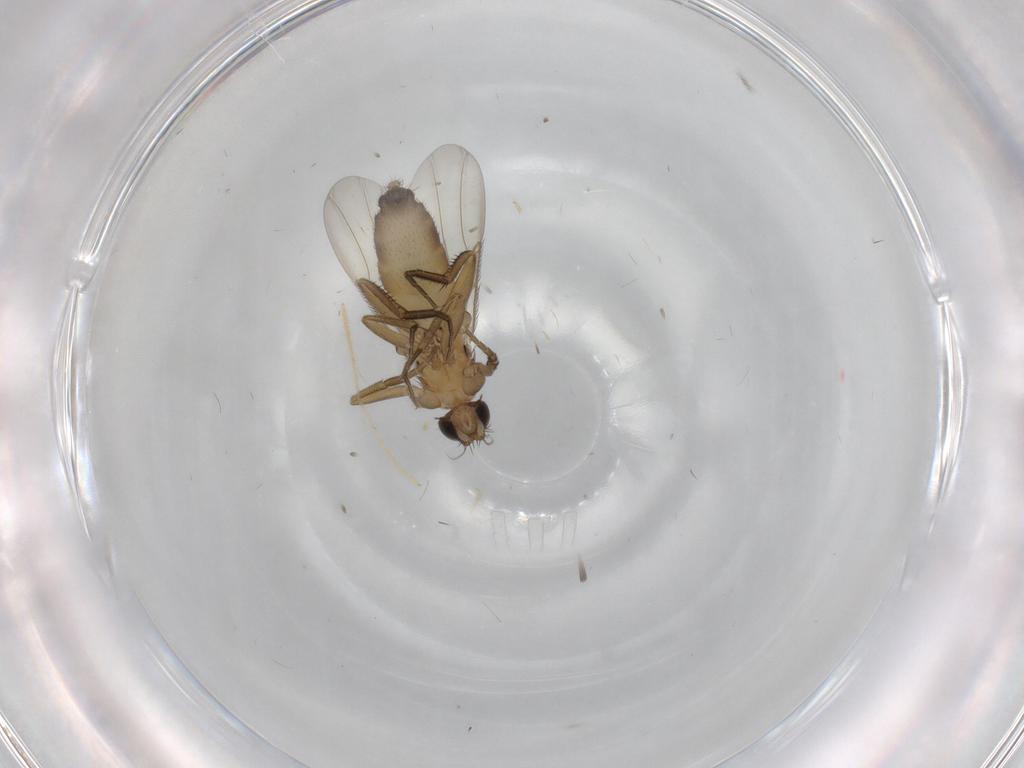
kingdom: Animalia
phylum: Arthropoda
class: Insecta
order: Diptera
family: Phoridae
